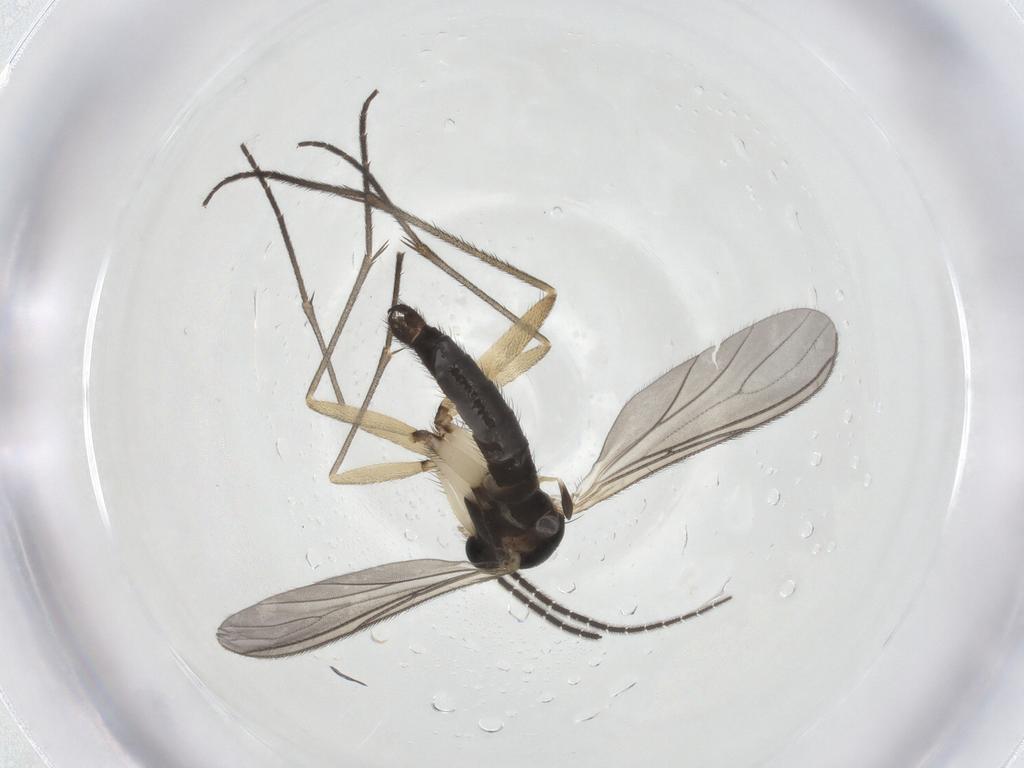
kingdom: Animalia
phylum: Arthropoda
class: Insecta
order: Diptera
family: Sciaridae
